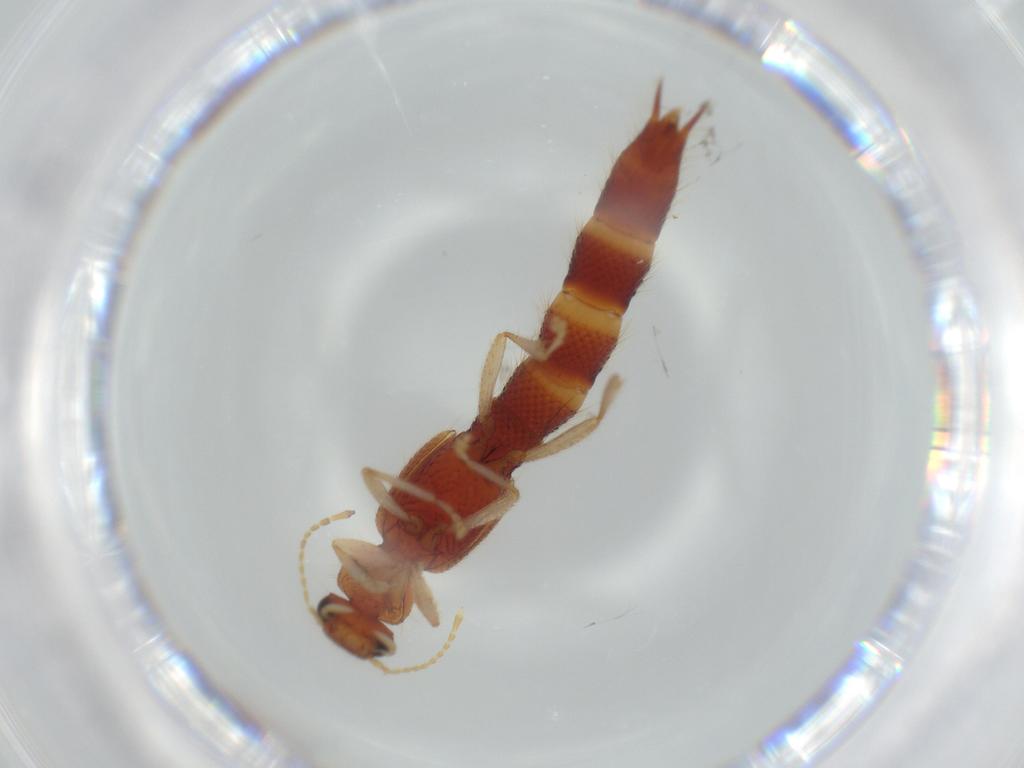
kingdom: Animalia
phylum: Arthropoda
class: Insecta
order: Coleoptera
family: Staphylinidae
